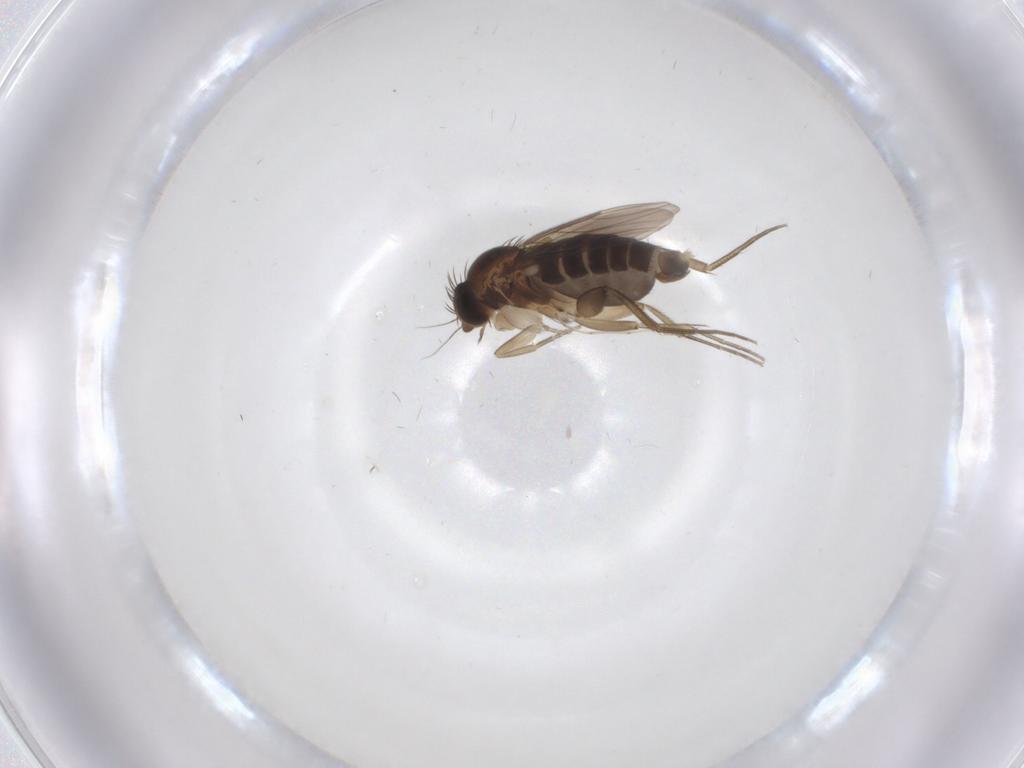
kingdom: Animalia
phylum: Arthropoda
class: Insecta
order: Diptera
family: Phoridae
